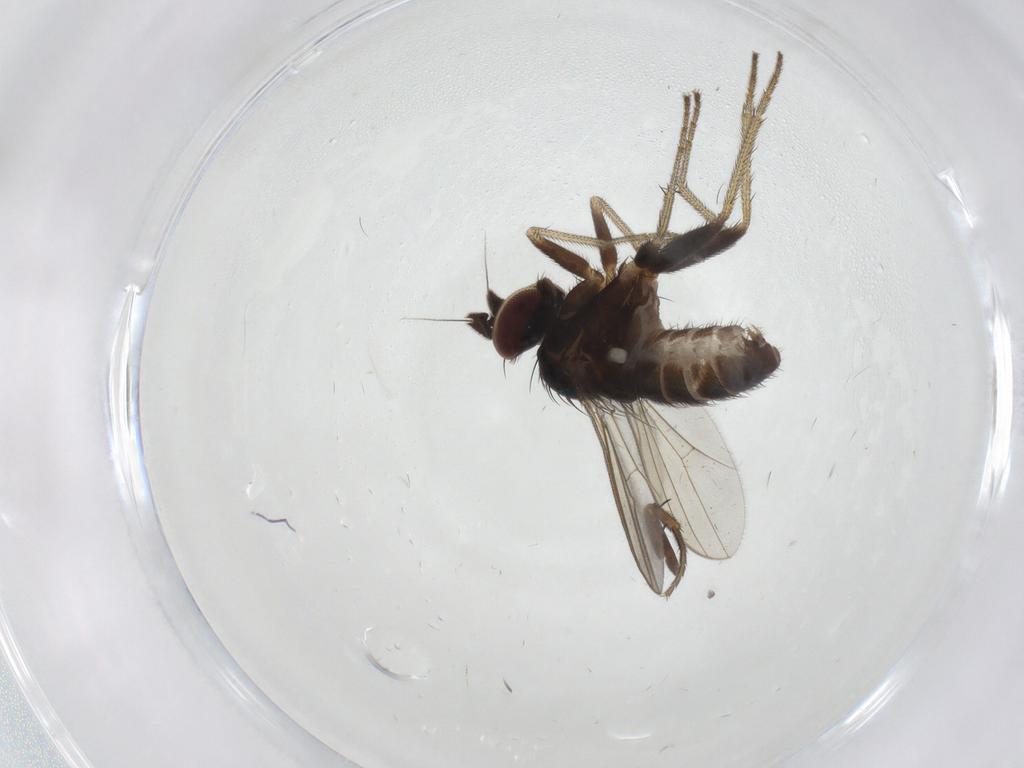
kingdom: Animalia
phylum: Arthropoda
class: Insecta
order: Diptera
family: Dolichopodidae
